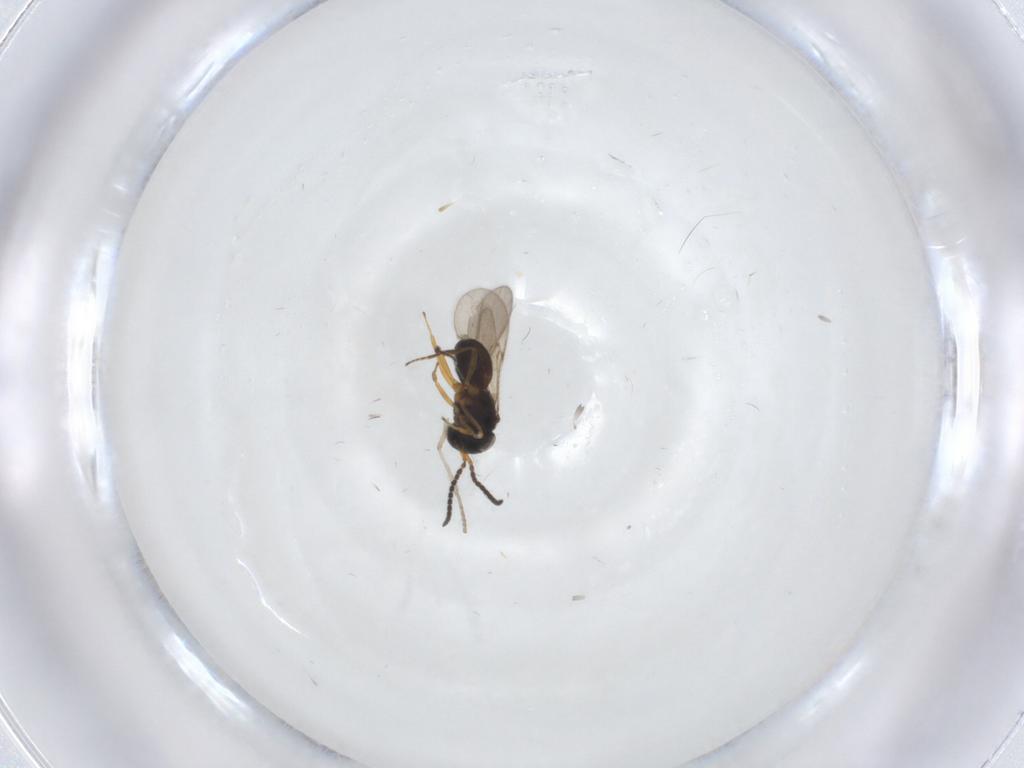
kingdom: Animalia
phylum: Arthropoda
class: Insecta
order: Hymenoptera
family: Scelionidae
